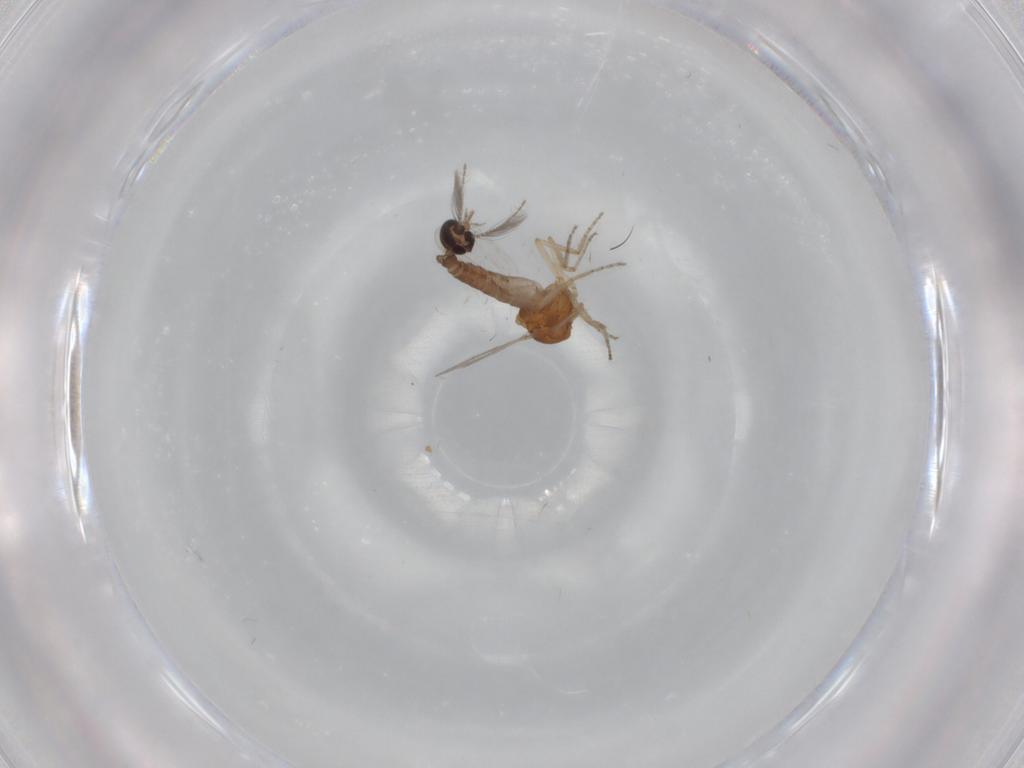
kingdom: Animalia
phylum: Arthropoda
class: Insecta
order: Diptera
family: Ceratopogonidae
